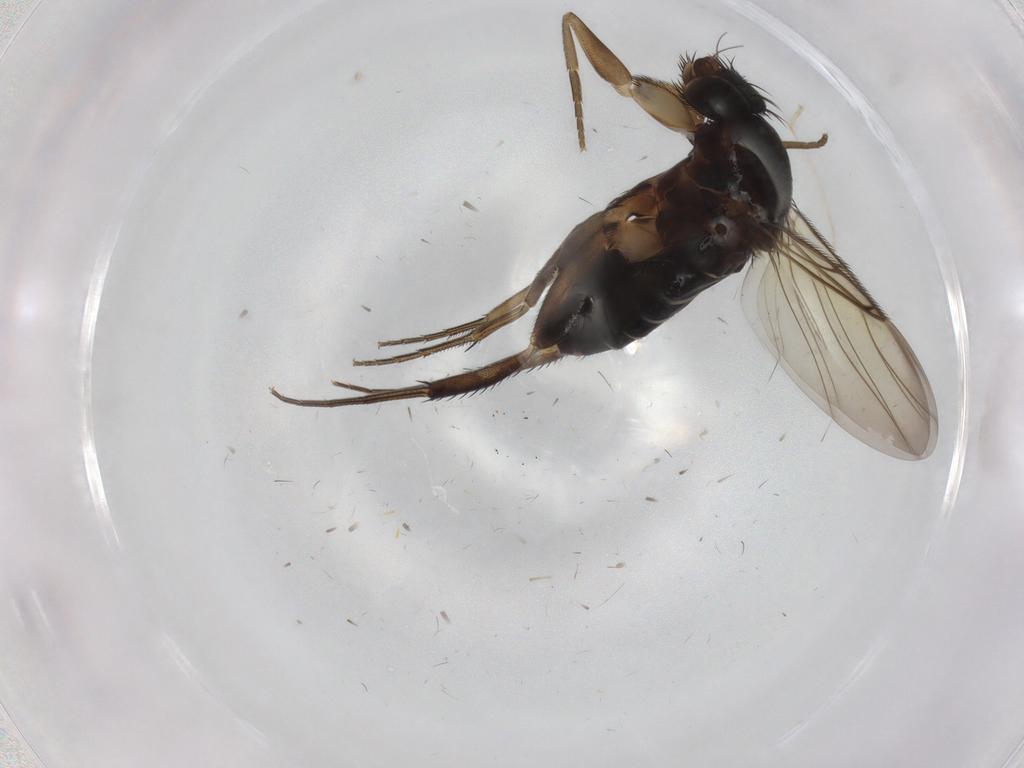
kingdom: Animalia
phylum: Arthropoda
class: Insecta
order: Diptera
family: Phoridae
